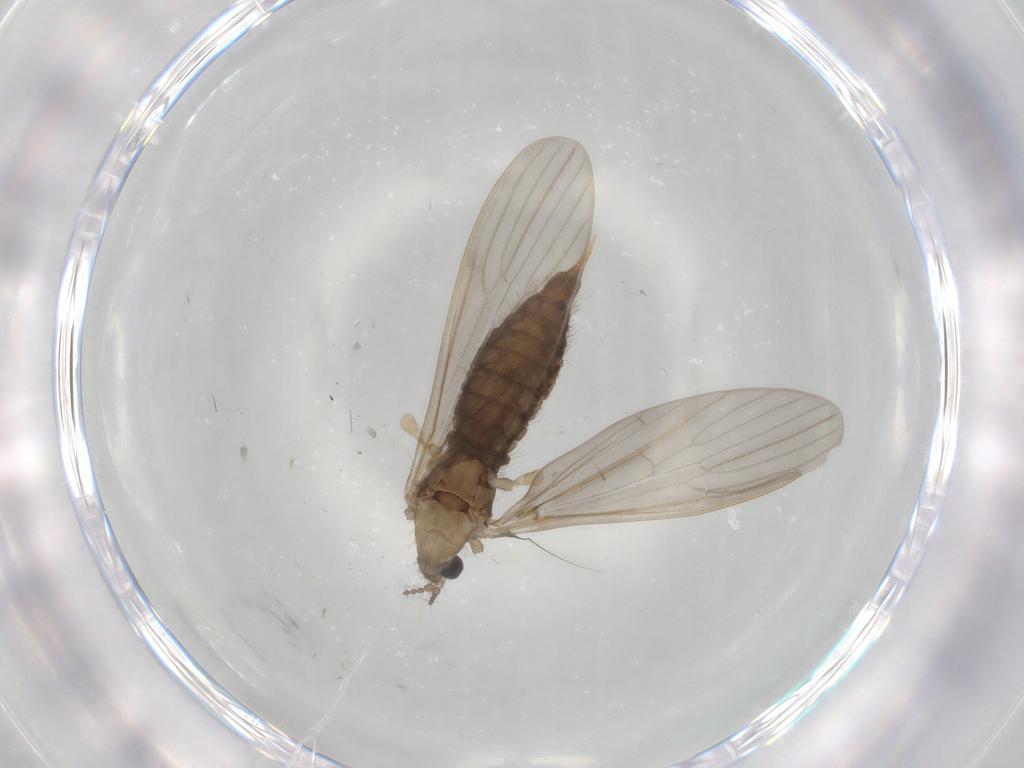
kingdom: Animalia
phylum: Arthropoda
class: Insecta
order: Diptera
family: Limoniidae
